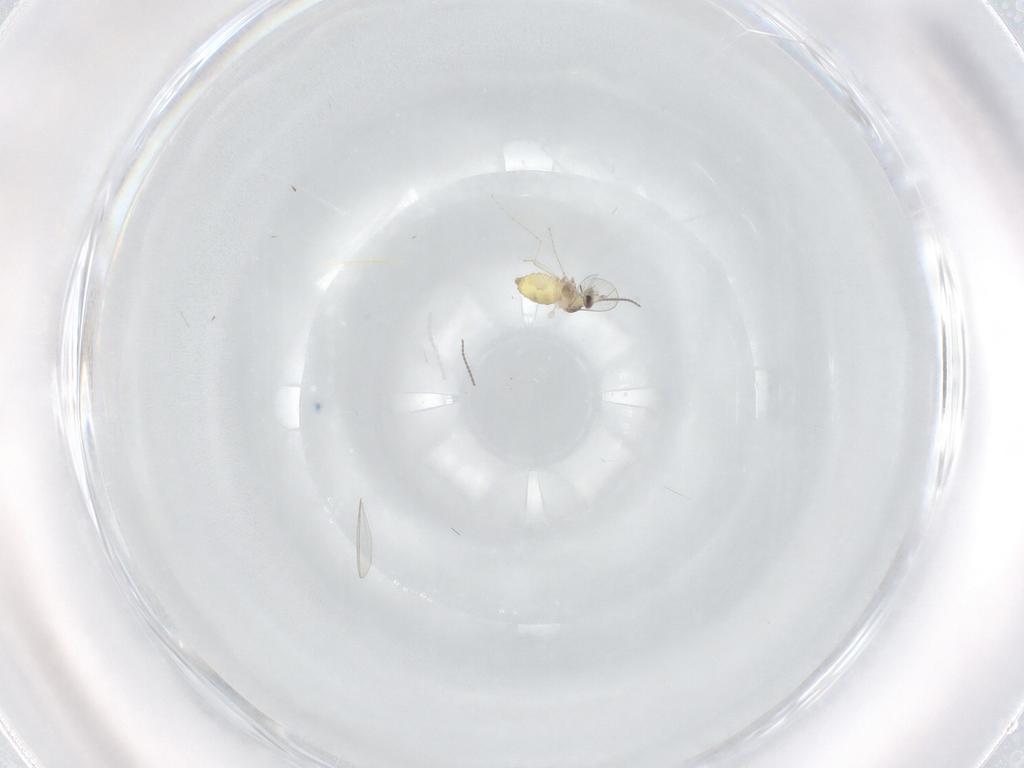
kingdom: Animalia
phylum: Arthropoda
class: Insecta
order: Diptera
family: Cecidomyiidae
